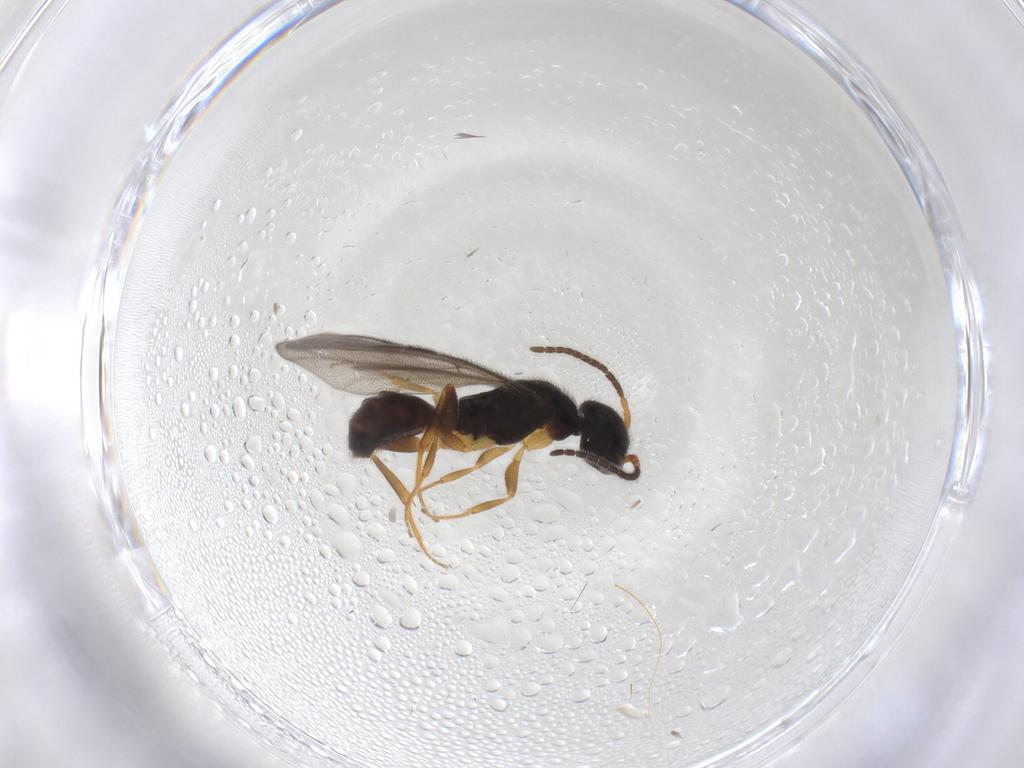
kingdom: Animalia
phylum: Arthropoda
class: Insecta
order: Hymenoptera
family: Bethylidae
